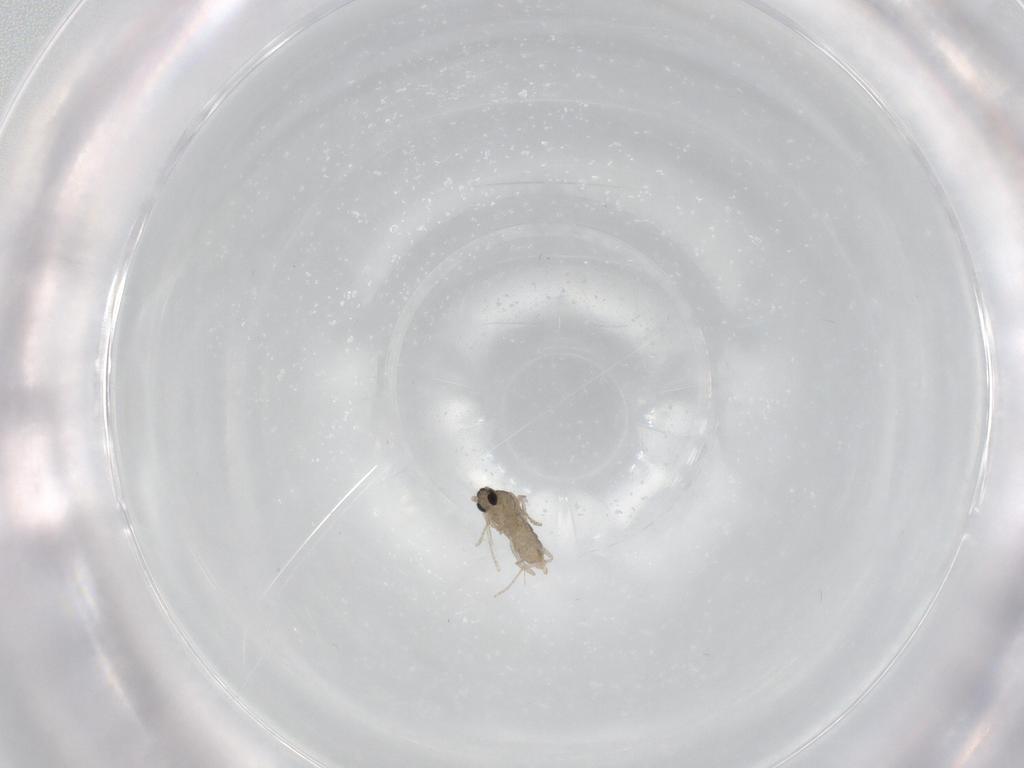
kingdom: Animalia
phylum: Arthropoda
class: Insecta
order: Diptera
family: Cecidomyiidae
